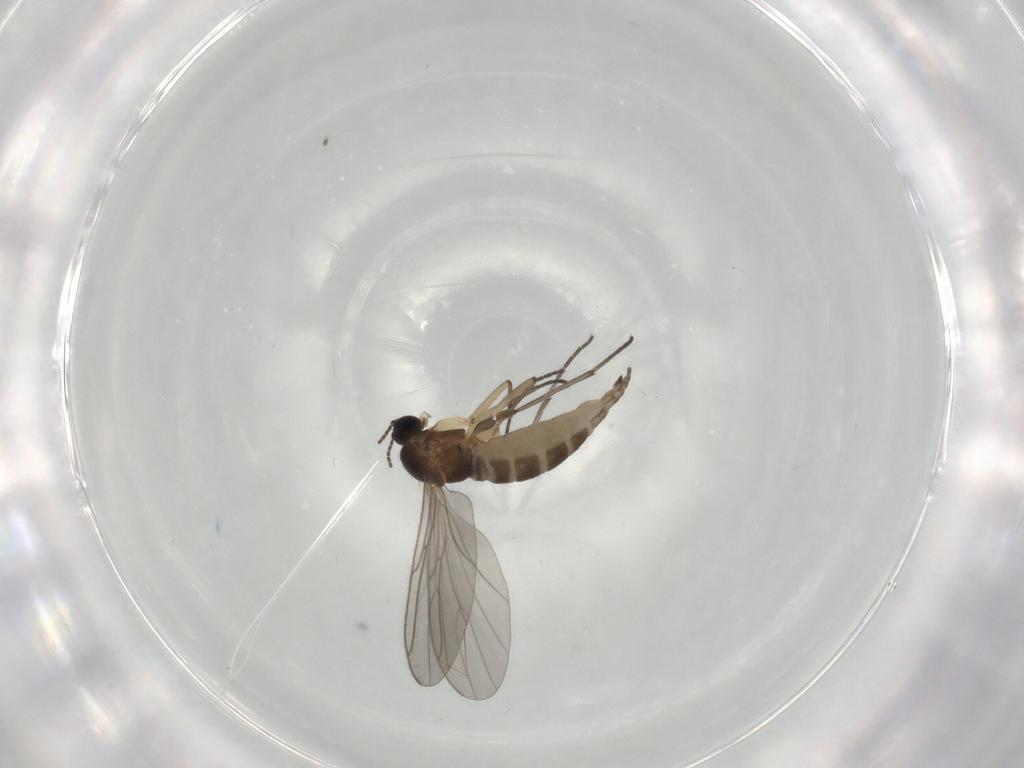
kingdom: Animalia
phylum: Arthropoda
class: Insecta
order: Diptera
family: Sciaridae
